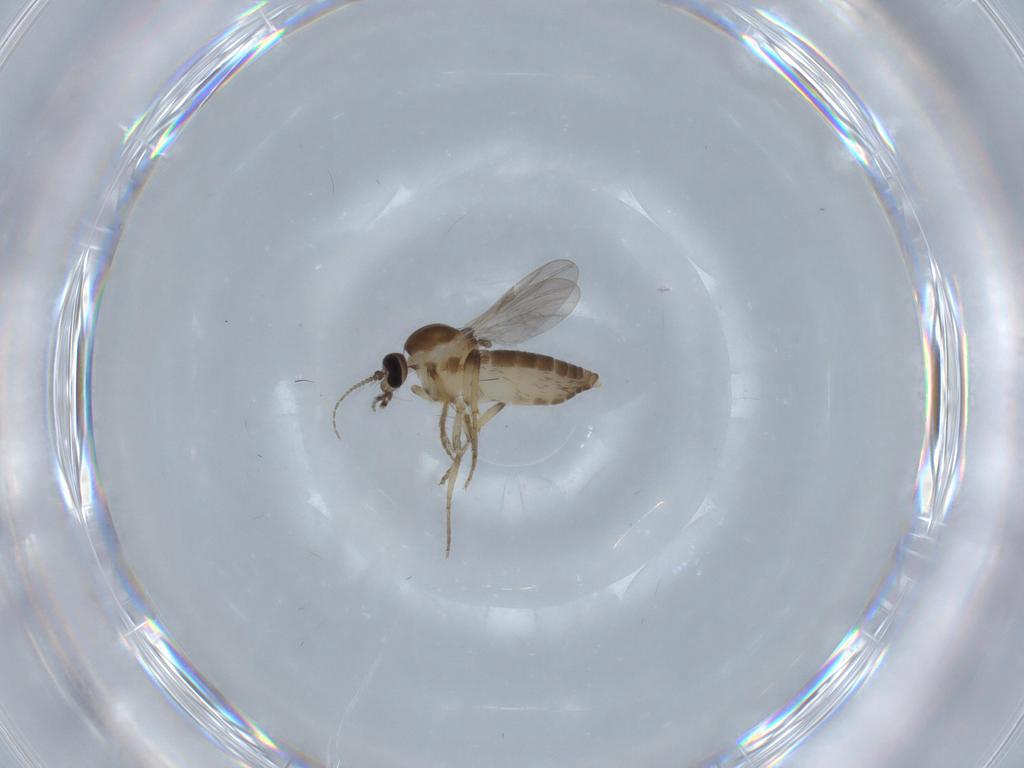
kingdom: Animalia
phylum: Arthropoda
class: Insecta
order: Diptera
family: Ceratopogonidae
